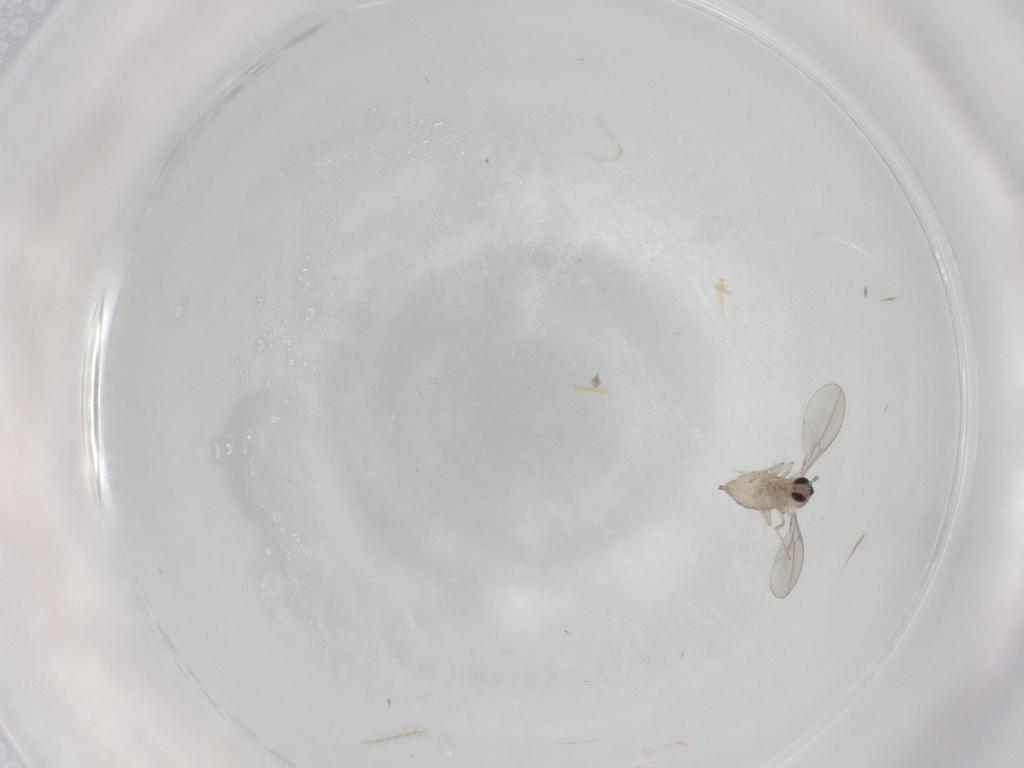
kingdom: Animalia
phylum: Arthropoda
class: Insecta
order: Diptera
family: Cecidomyiidae
